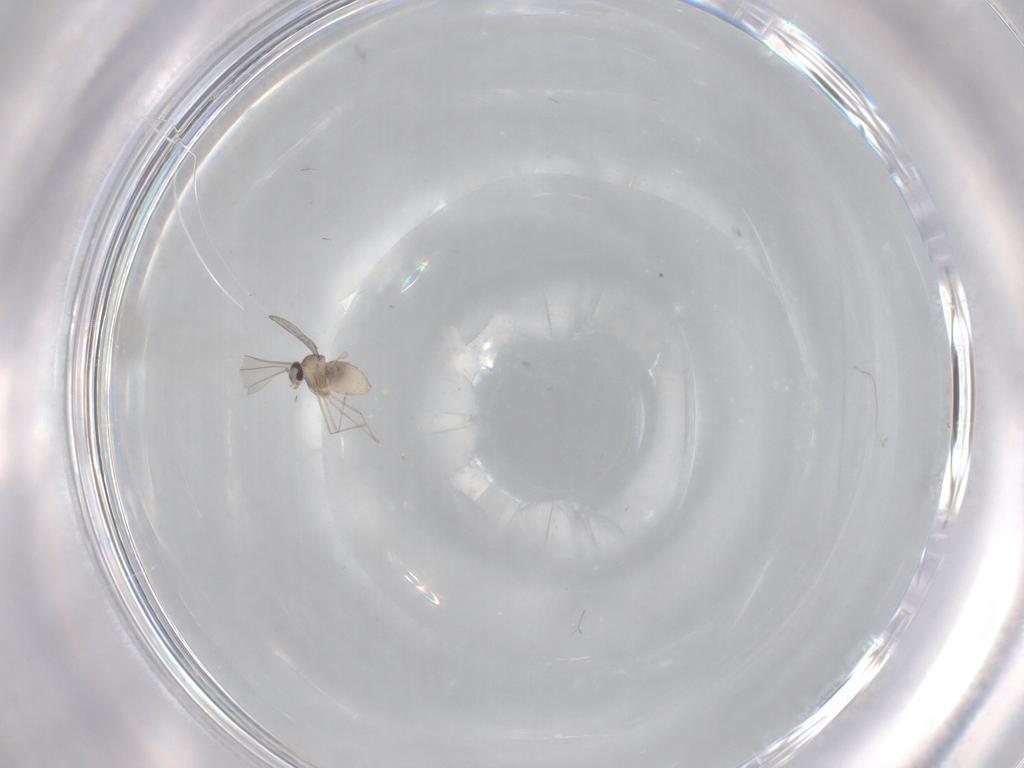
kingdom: Animalia
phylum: Arthropoda
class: Insecta
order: Diptera
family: Cecidomyiidae
